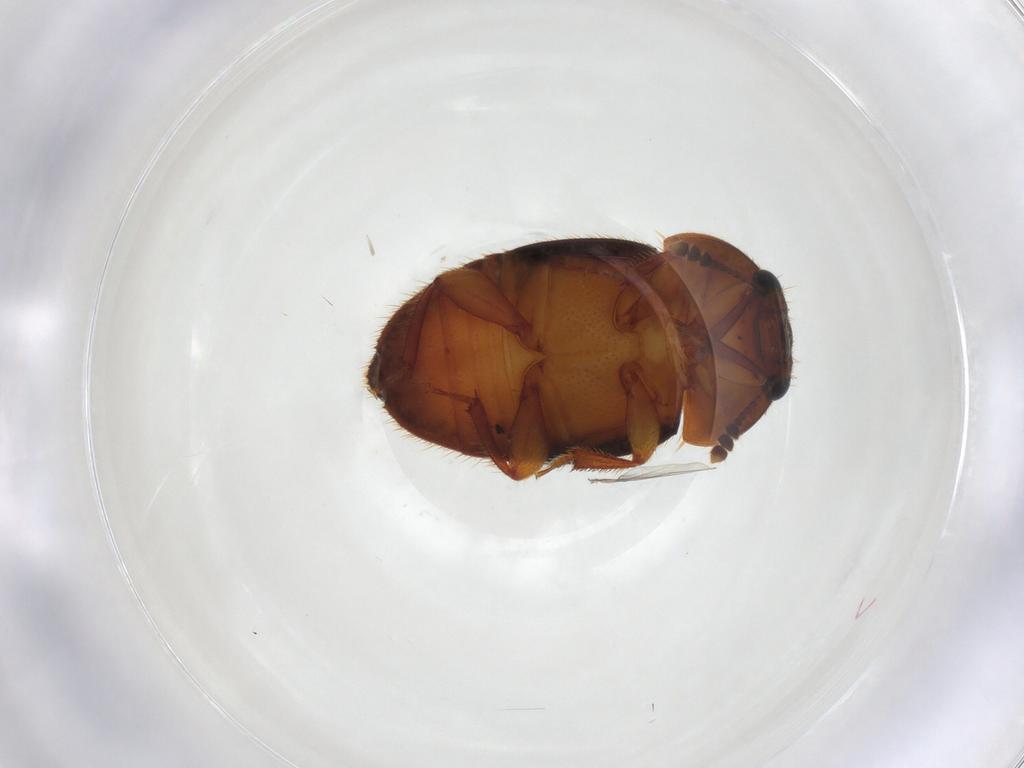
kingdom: Animalia
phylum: Arthropoda
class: Insecta
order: Coleoptera
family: Nitidulidae
